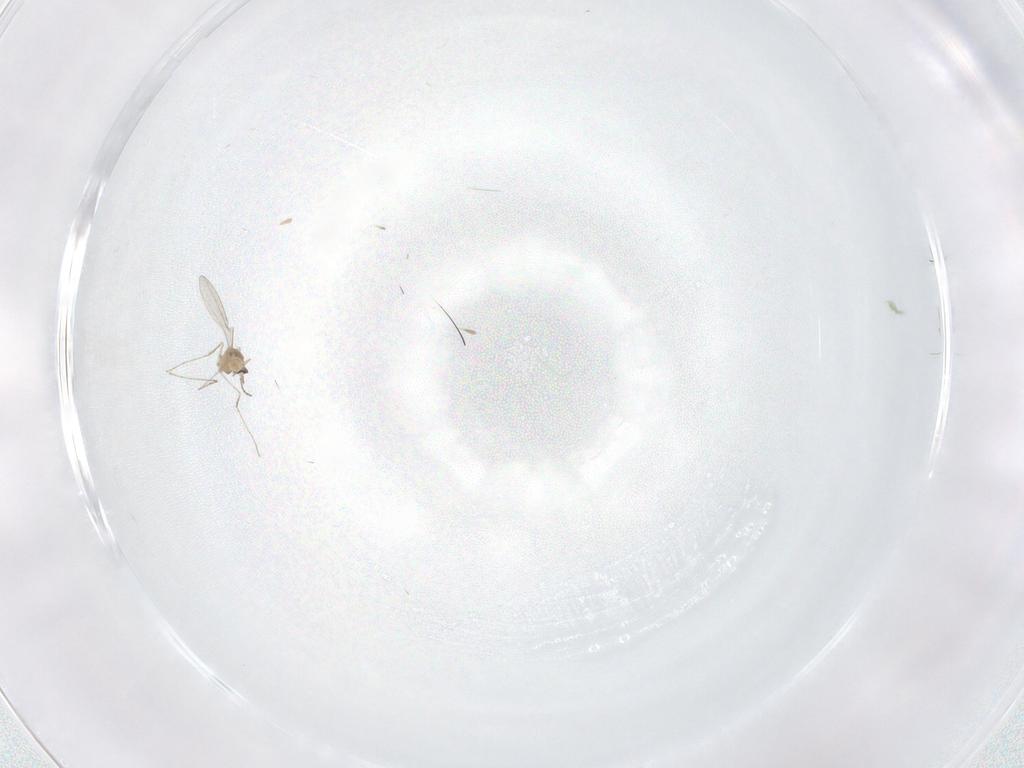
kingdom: Animalia
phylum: Arthropoda
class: Insecta
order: Diptera
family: Cecidomyiidae
